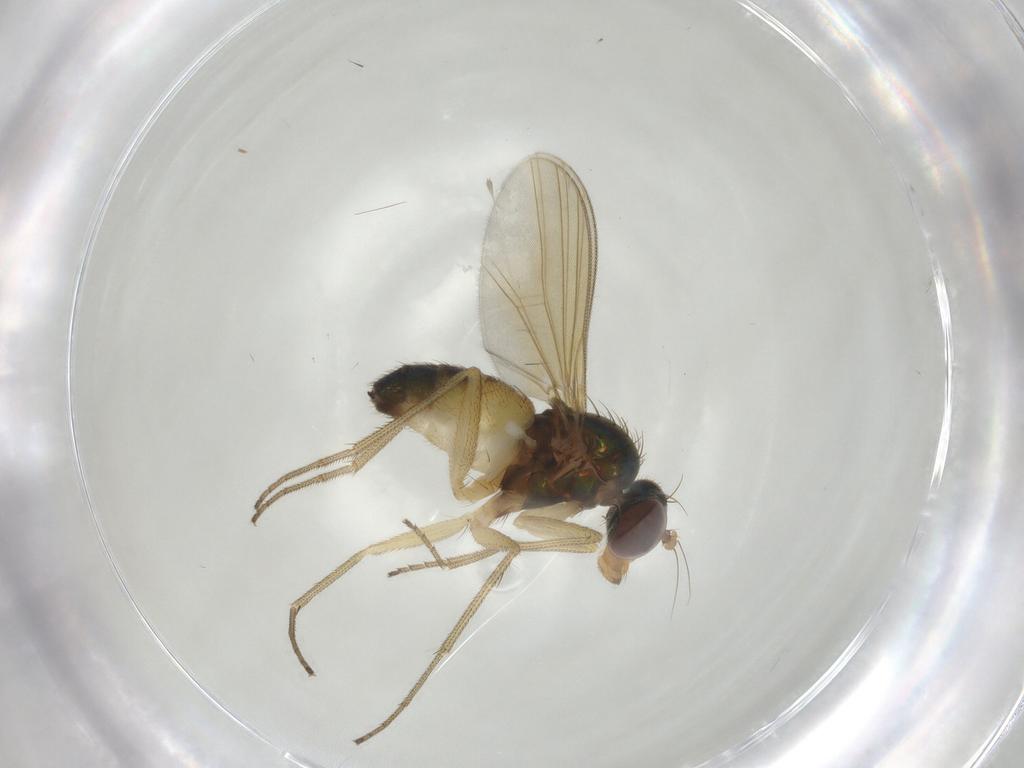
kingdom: Animalia
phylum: Arthropoda
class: Insecta
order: Diptera
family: Dolichopodidae
